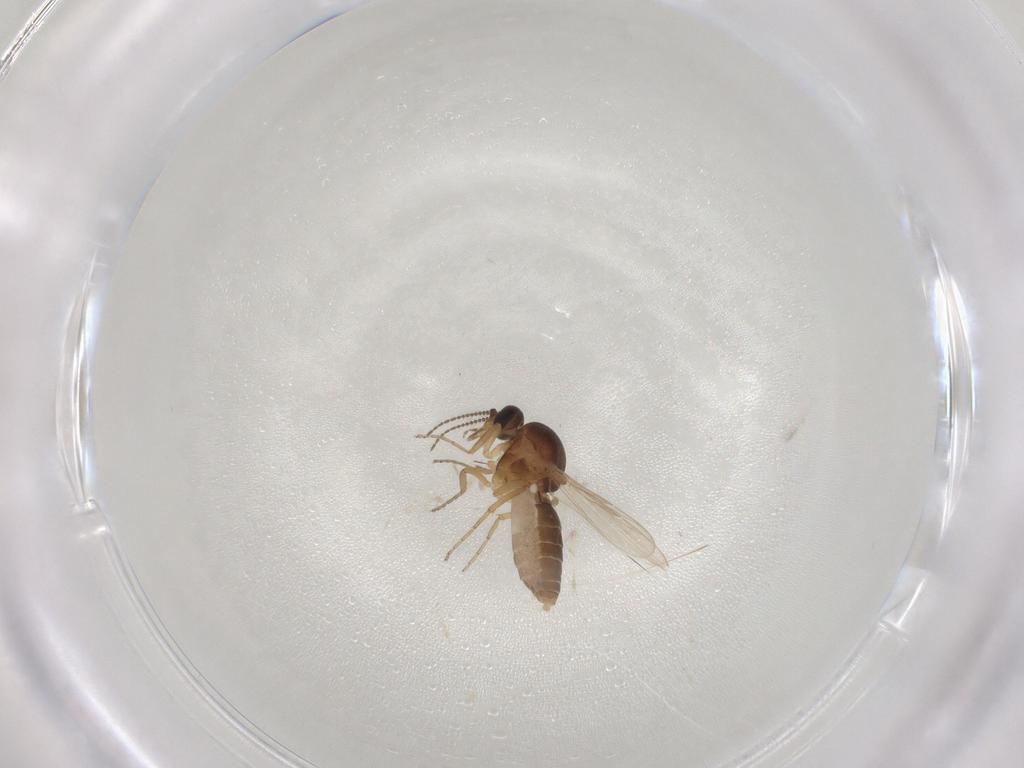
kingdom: Animalia
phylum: Arthropoda
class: Insecta
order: Diptera
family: Ceratopogonidae
